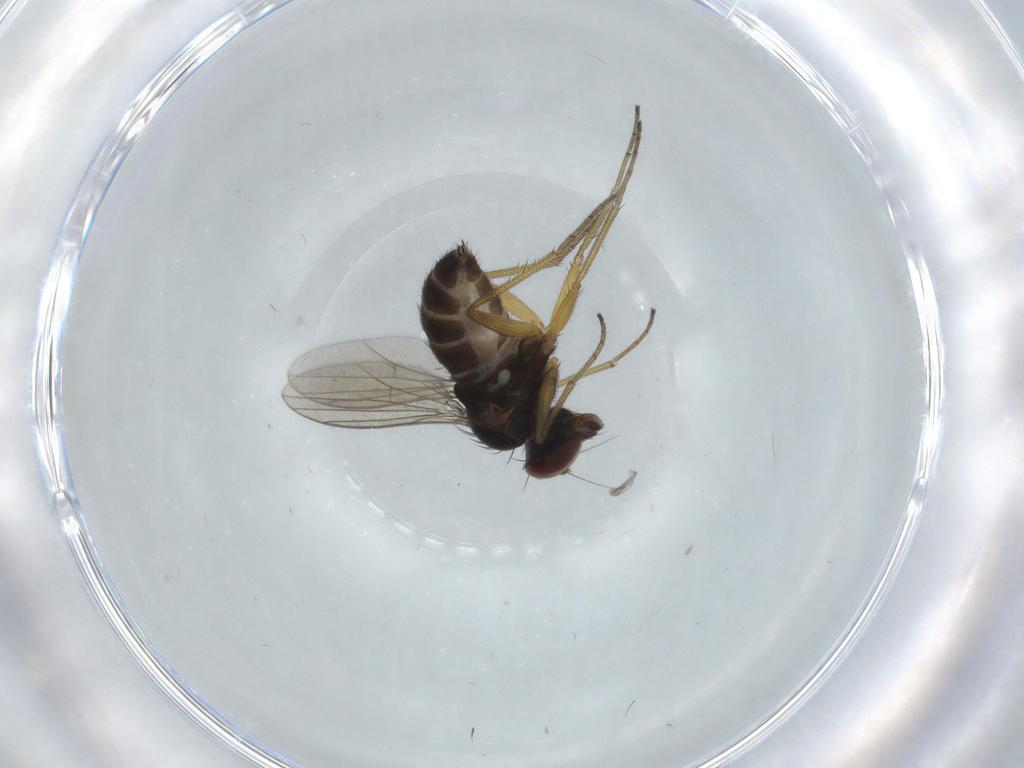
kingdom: Animalia
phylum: Arthropoda
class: Insecta
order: Diptera
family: Dolichopodidae
